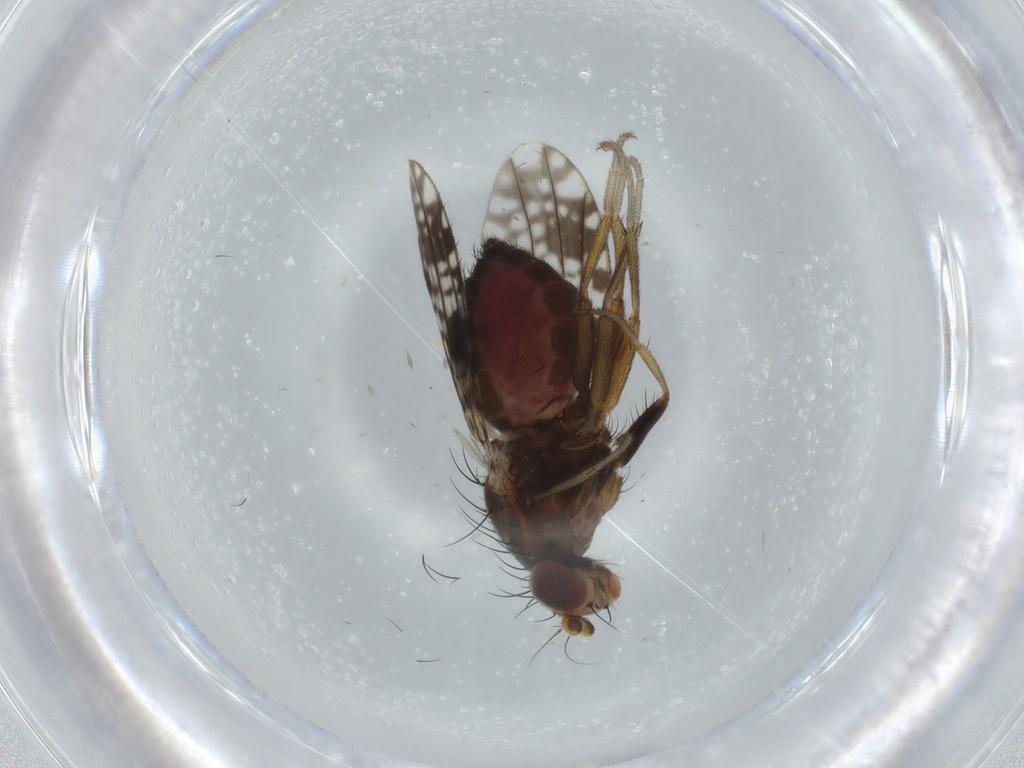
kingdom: Animalia
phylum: Arthropoda
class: Insecta
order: Diptera
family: Tephritidae
